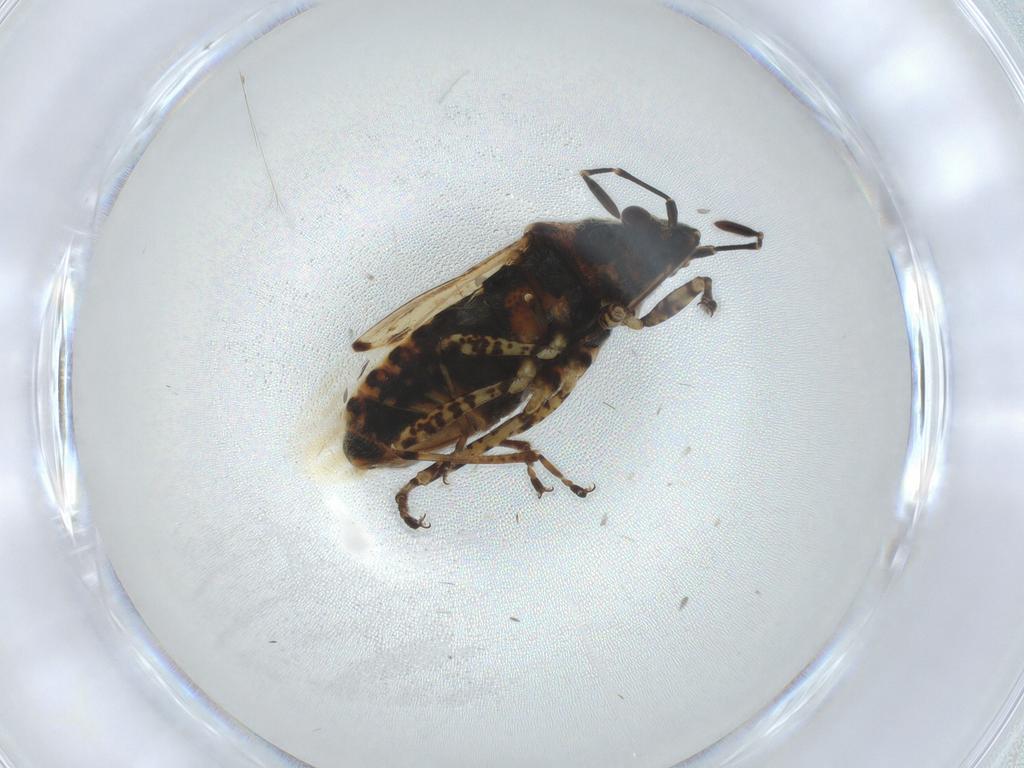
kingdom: Animalia
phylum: Arthropoda
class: Insecta
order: Hemiptera
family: Lygaeidae
